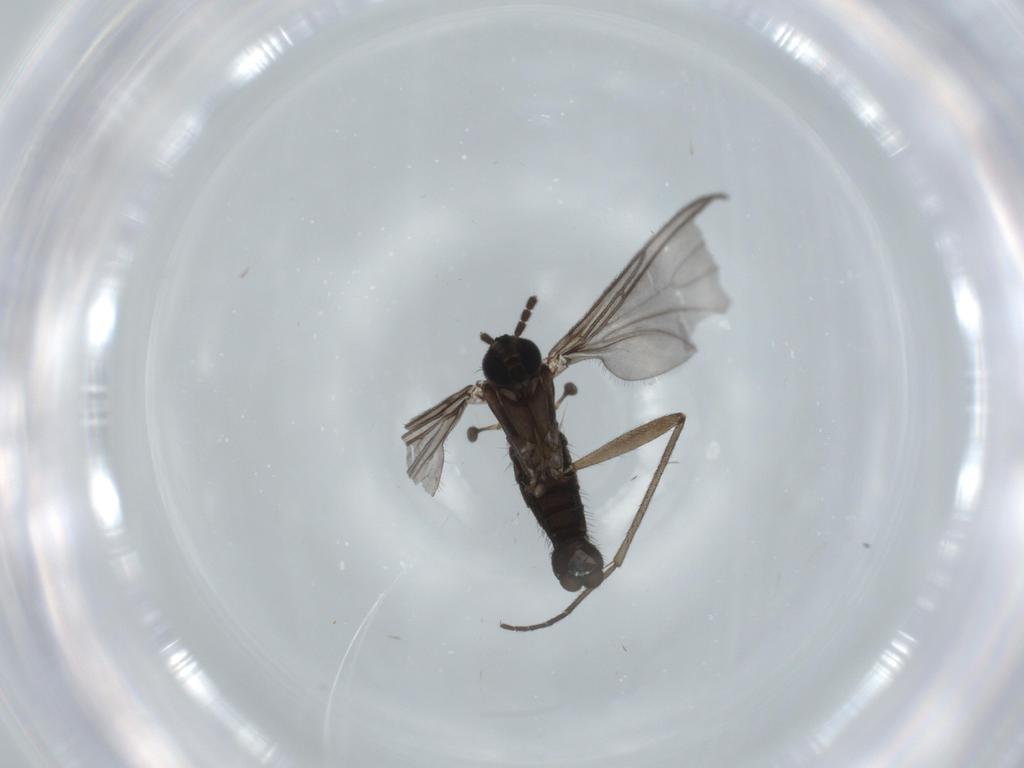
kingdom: Animalia
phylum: Arthropoda
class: Insecta
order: Diptera
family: Sciaridae
